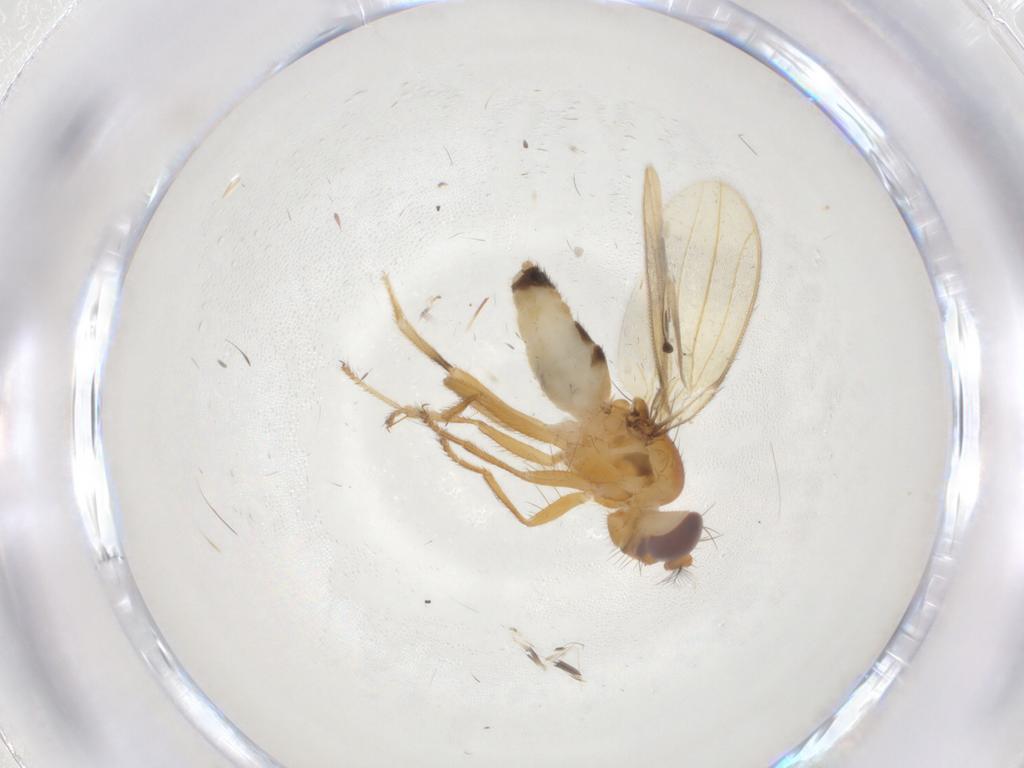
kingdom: Animalia
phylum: Arthropoda
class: Insecta
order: Diptera
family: Periscelididae
